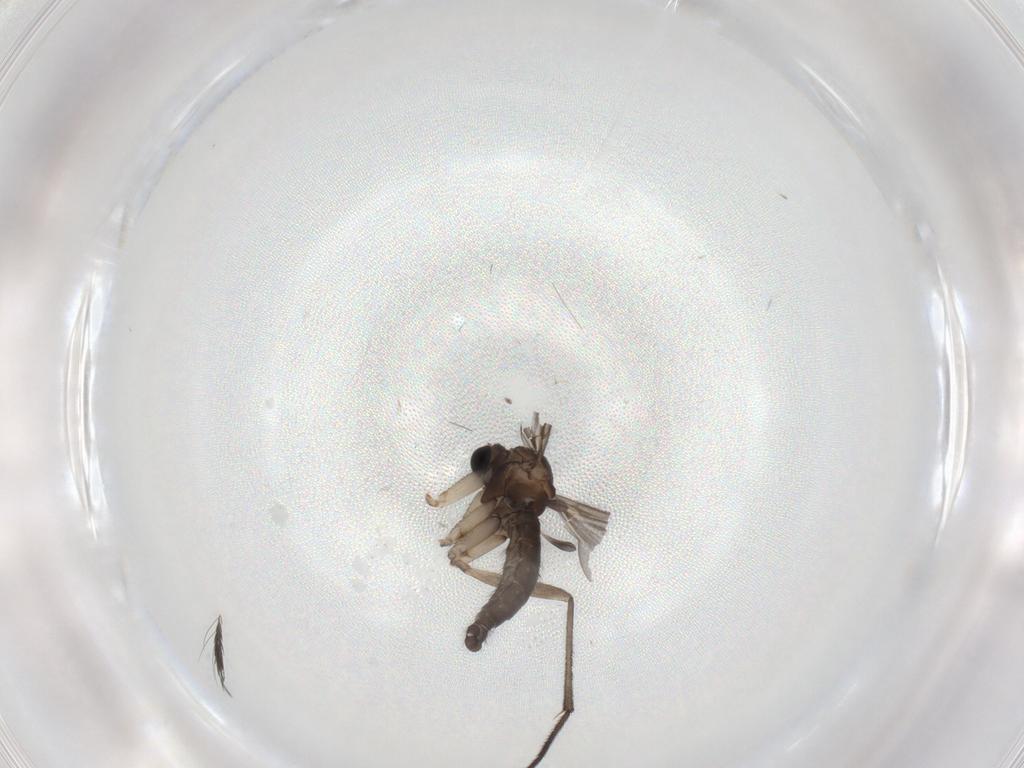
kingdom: Animalia
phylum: Arthropoda
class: Insecta
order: Diptera
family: Sciaridae
